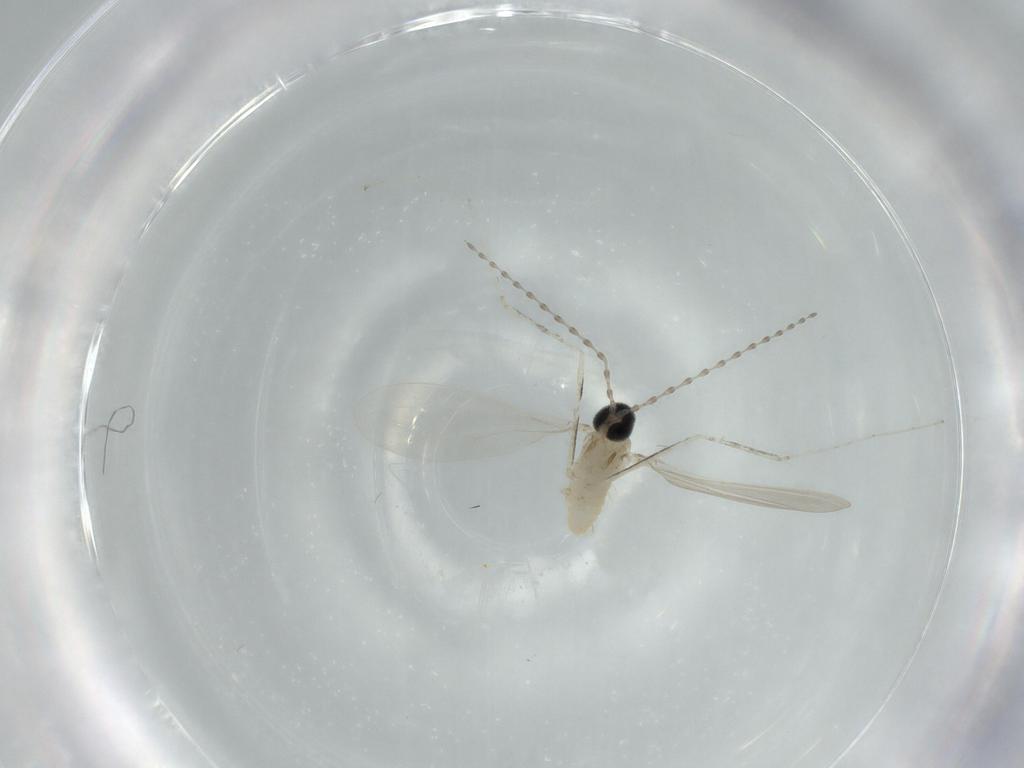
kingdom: Animalia
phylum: Arthropoda
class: Insecta
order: Diptera
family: Cecidomyiidae
